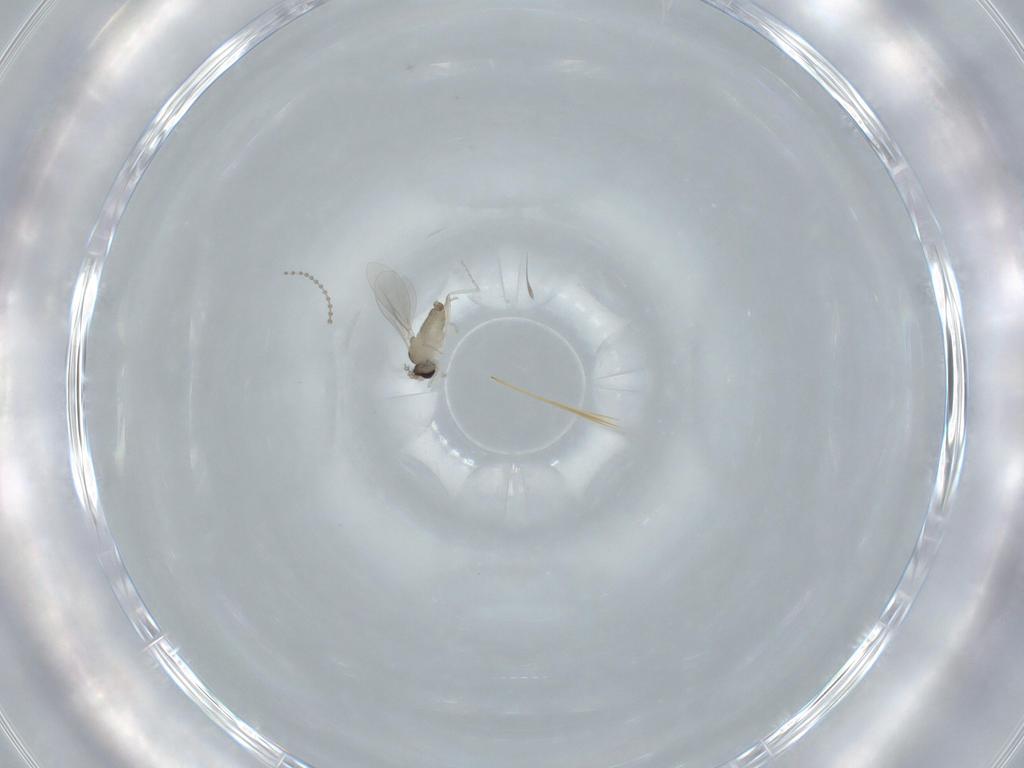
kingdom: Animalia
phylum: Arthropoda
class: Insecta
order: Diptera
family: Cecidomyiidae
